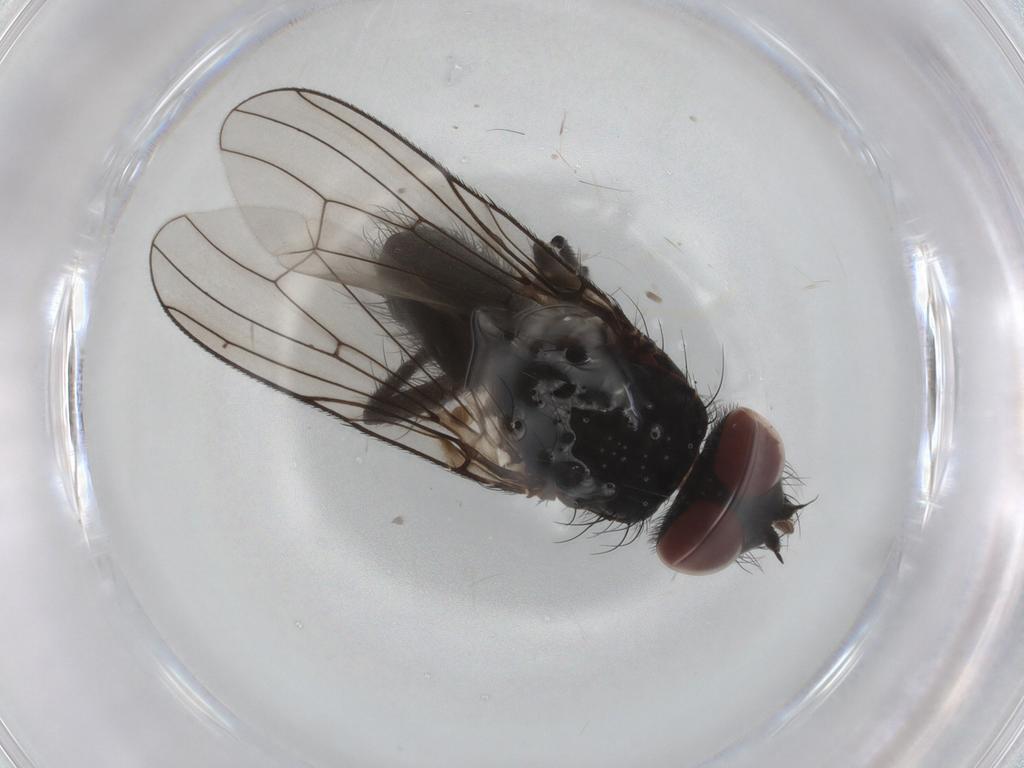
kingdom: Animalia
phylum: Arthropoda
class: Insecta
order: Diptera
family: Anthomyiidae
